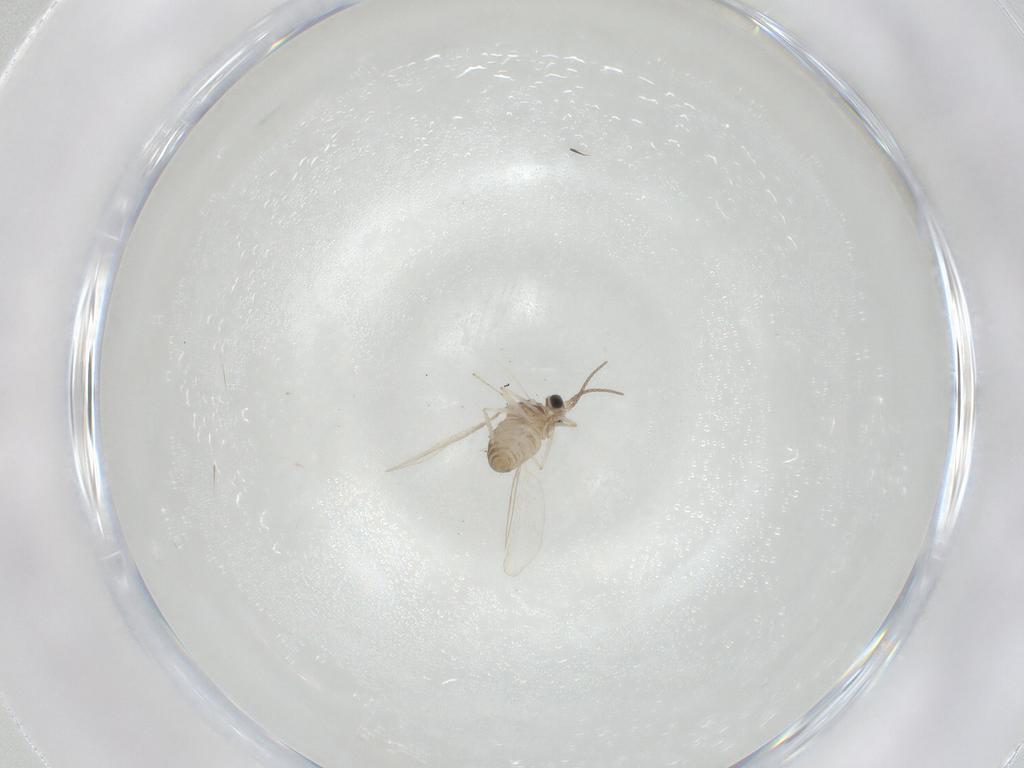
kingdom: Animalia
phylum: Arthropoda
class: Insecta
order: Diptera
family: Cecidomyiidae
